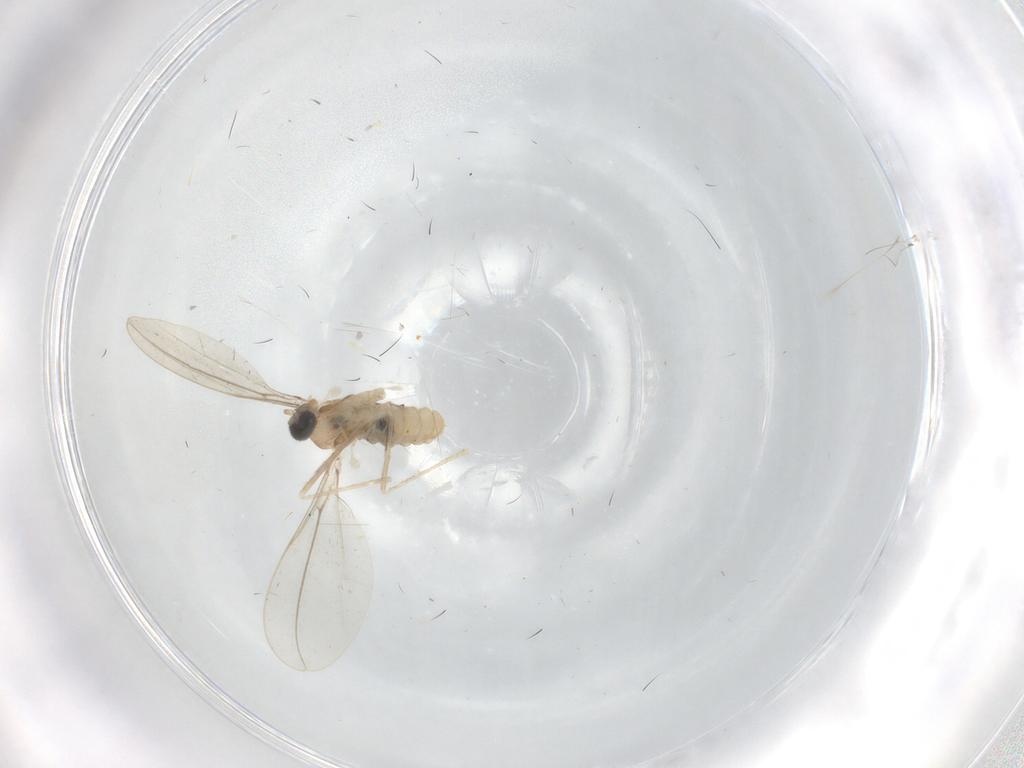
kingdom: Animalia
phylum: Arthropoda
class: Insecta
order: Diptera
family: Cecidomyiidae
